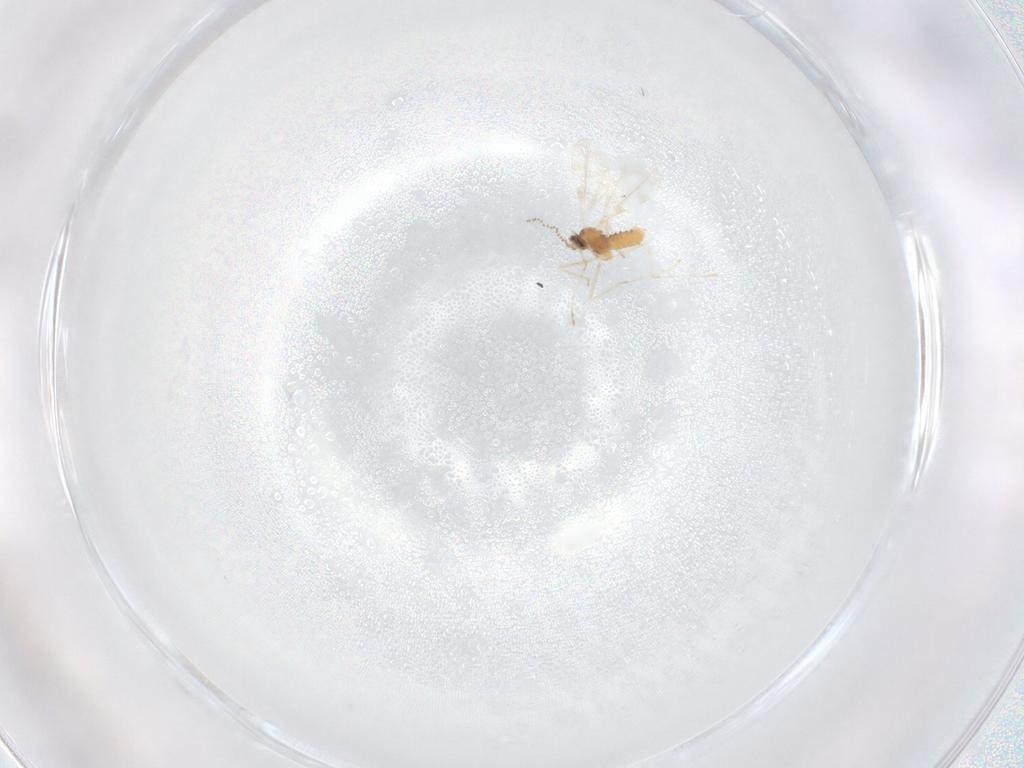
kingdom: Animalia
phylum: Arthropoda
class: Insecta
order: Diptera
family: Cecidomyiidae
